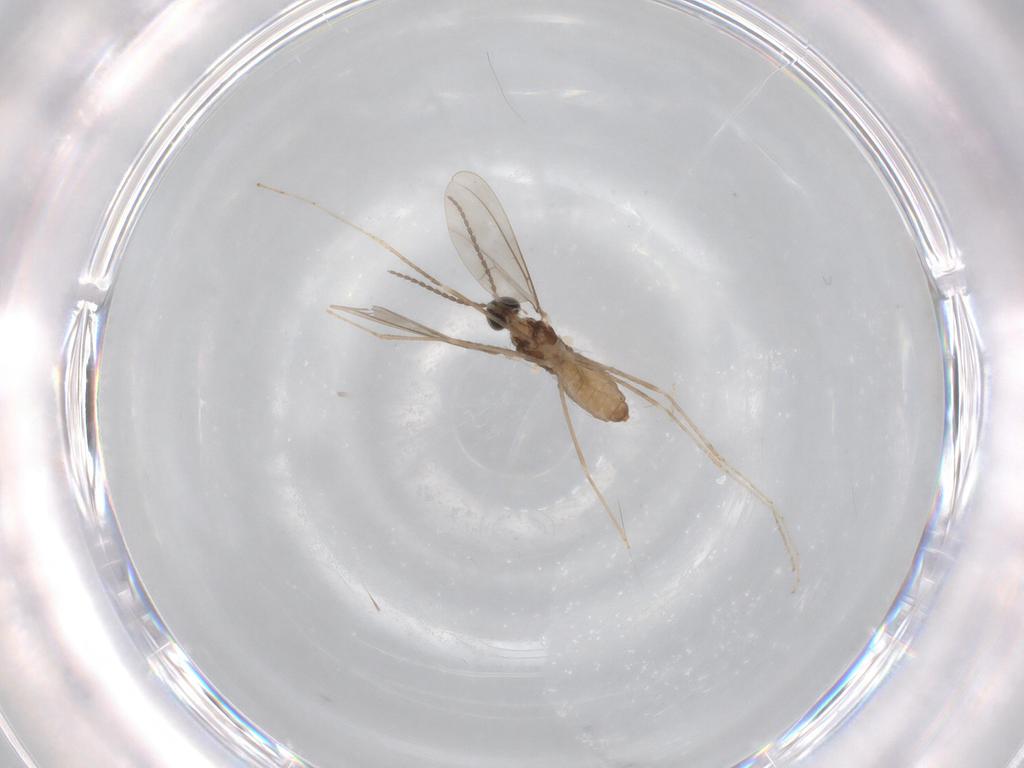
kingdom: Animalia
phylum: Arthropoda
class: Insecta
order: Diptera
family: Cecidomyiidae
